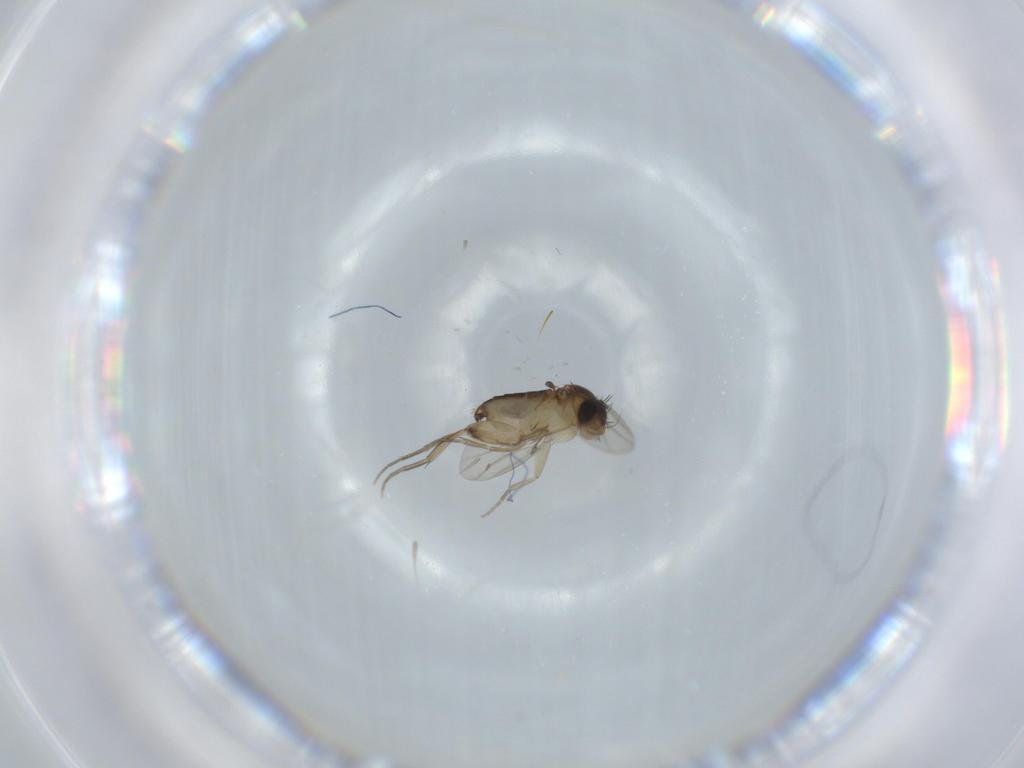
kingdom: Animalia
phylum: Arthropoda
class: Insecta
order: Diptera
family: Phoridae
